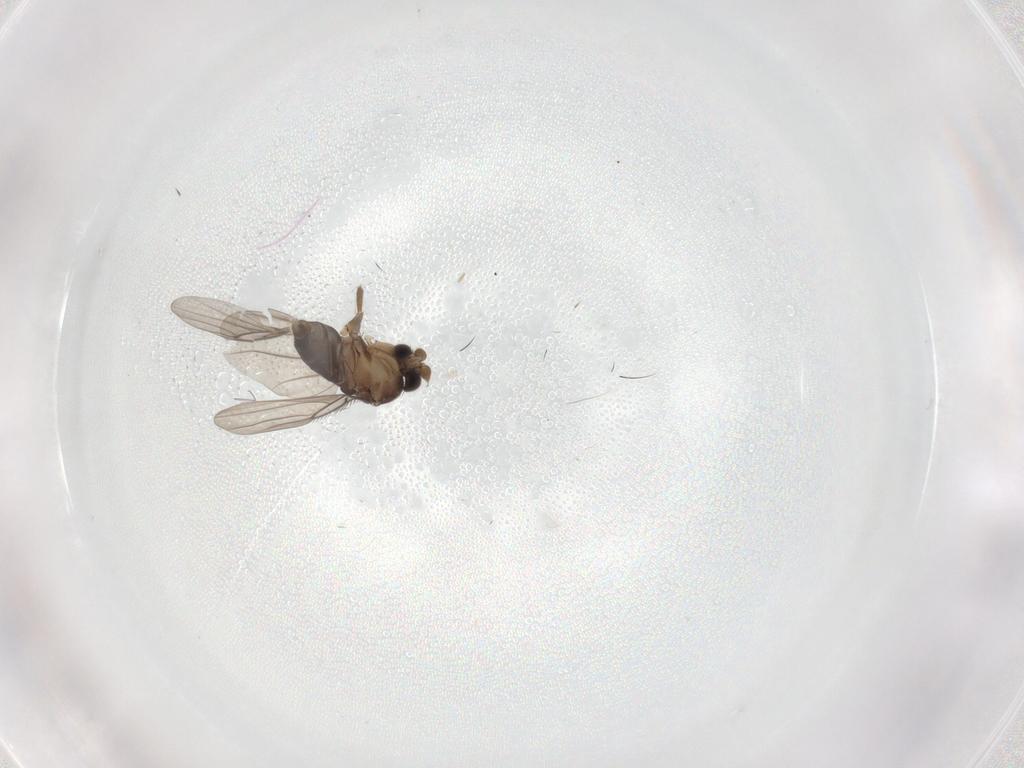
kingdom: Animalia
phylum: Arthropoda
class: Insecta
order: Diptera
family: Phoridae
